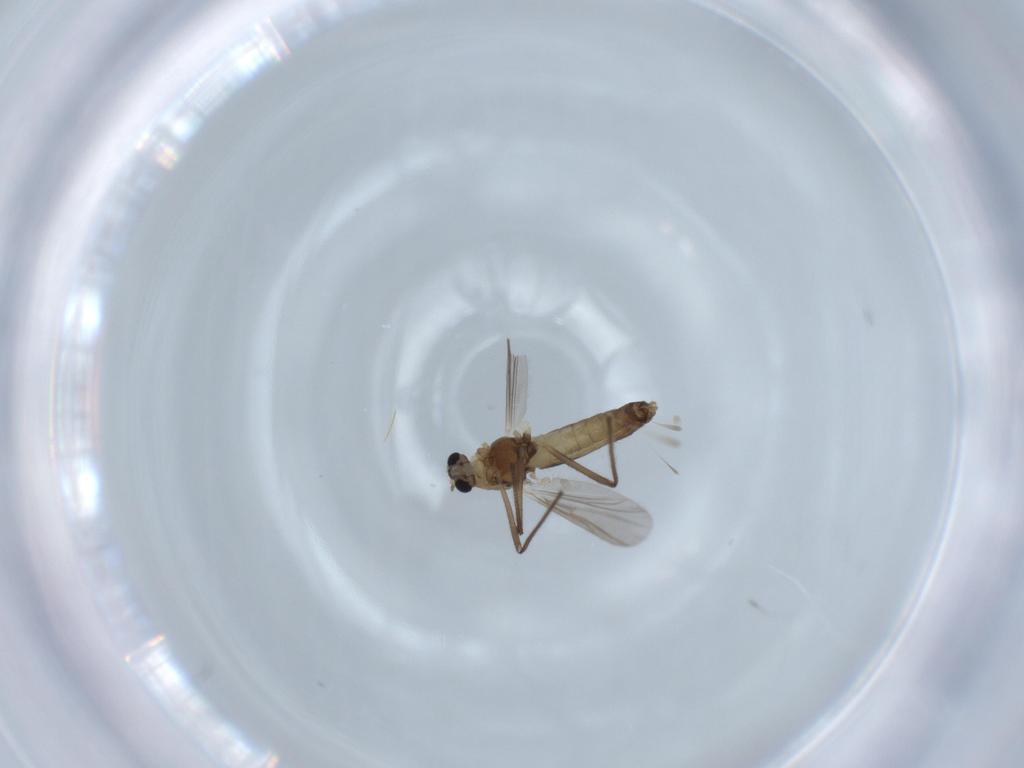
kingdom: Animalia
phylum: Arthropoda
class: Insecta
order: Diptera
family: Chironomidae
